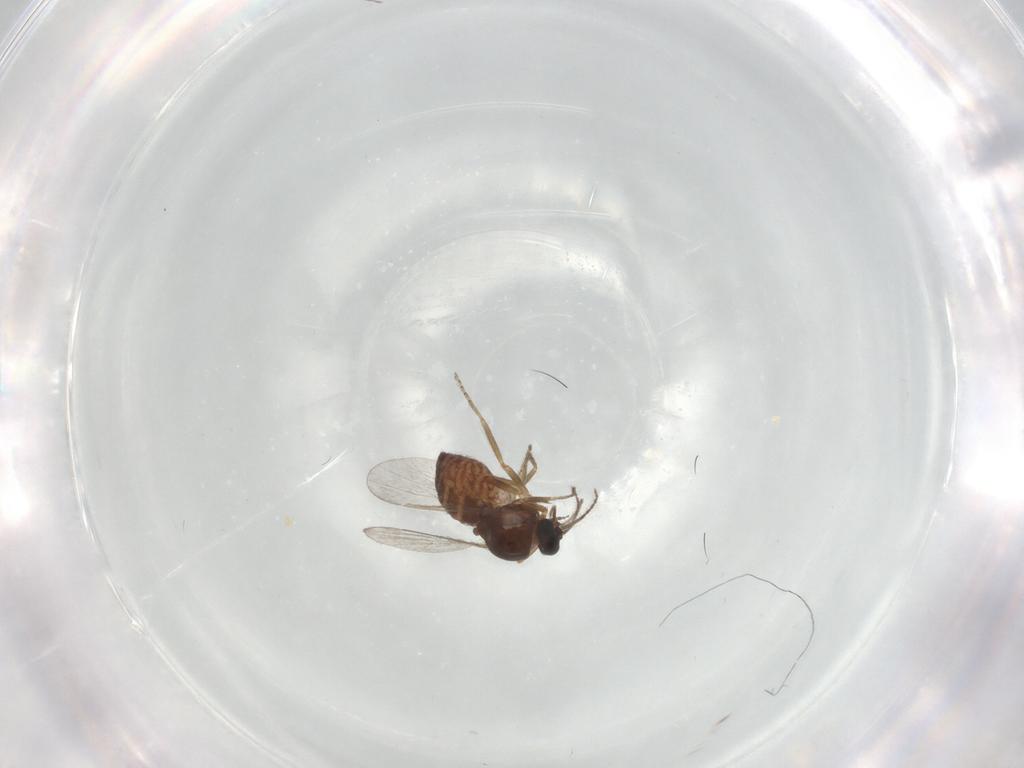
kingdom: Animalia
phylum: Arthropoda
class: Insecta
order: Diptera
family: Ceratopogonidae
